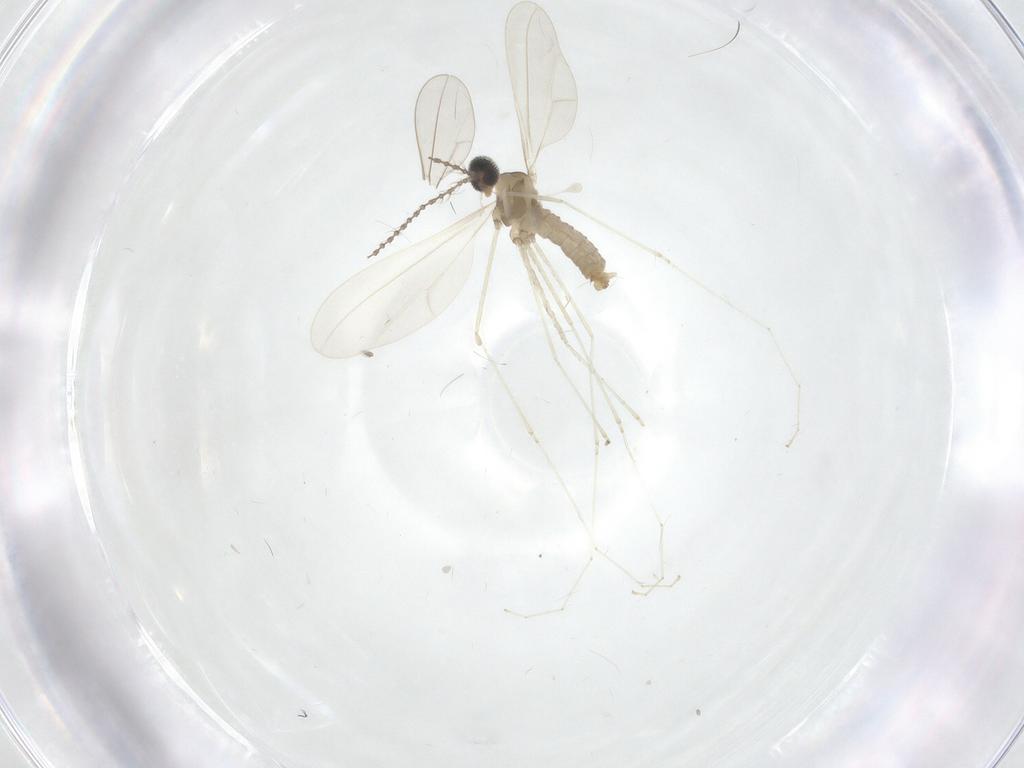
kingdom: Animalia
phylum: Arthropoda
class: Insecta
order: Diptera
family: Cecidomyiidae
